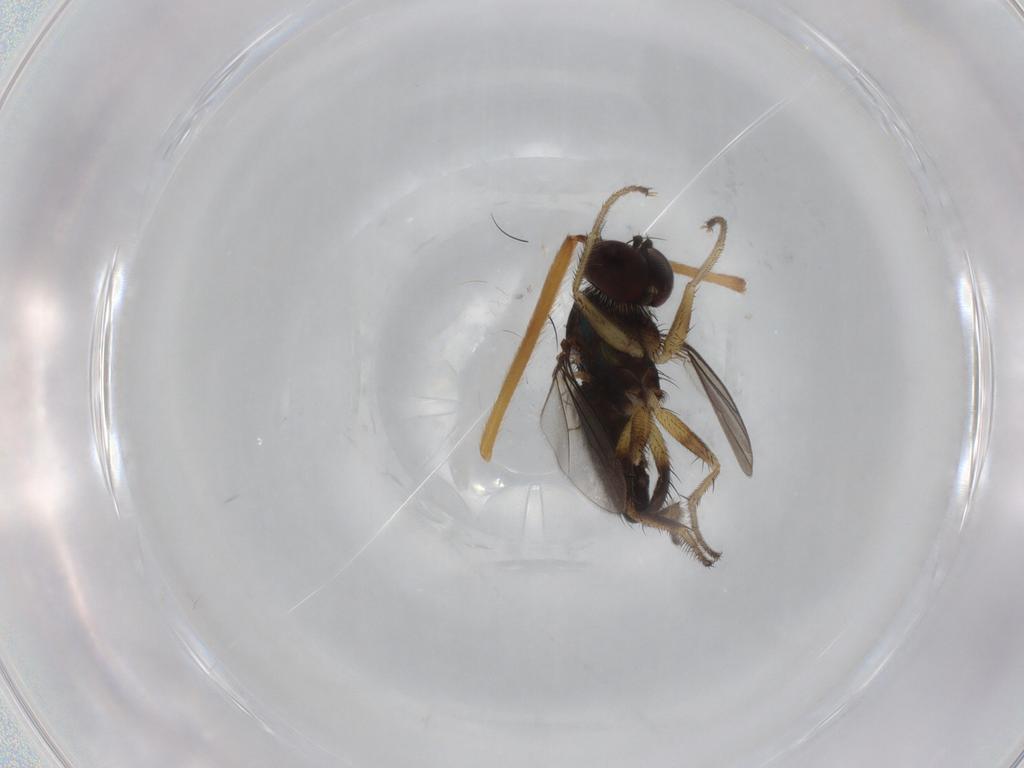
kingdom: Animalia
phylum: Arthropoda
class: Insecta
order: Diptera
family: Dolichopodidae
